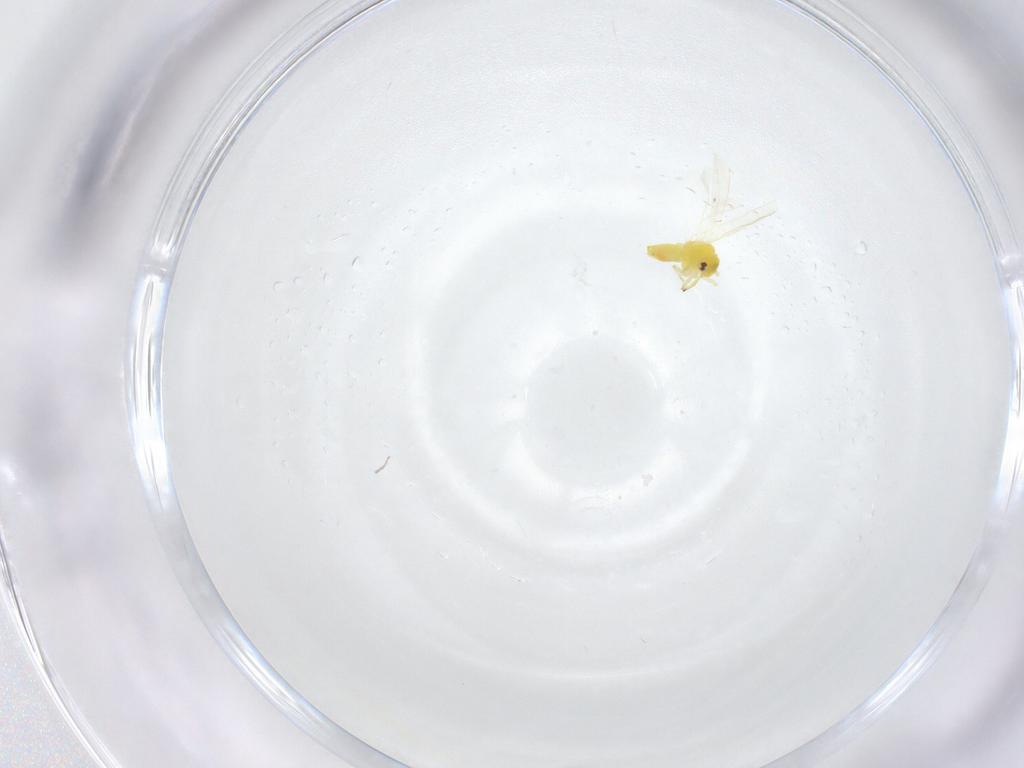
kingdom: Animalia
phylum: Arthropoda
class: Insecta
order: Hemiptera
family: Aleyrodidae
